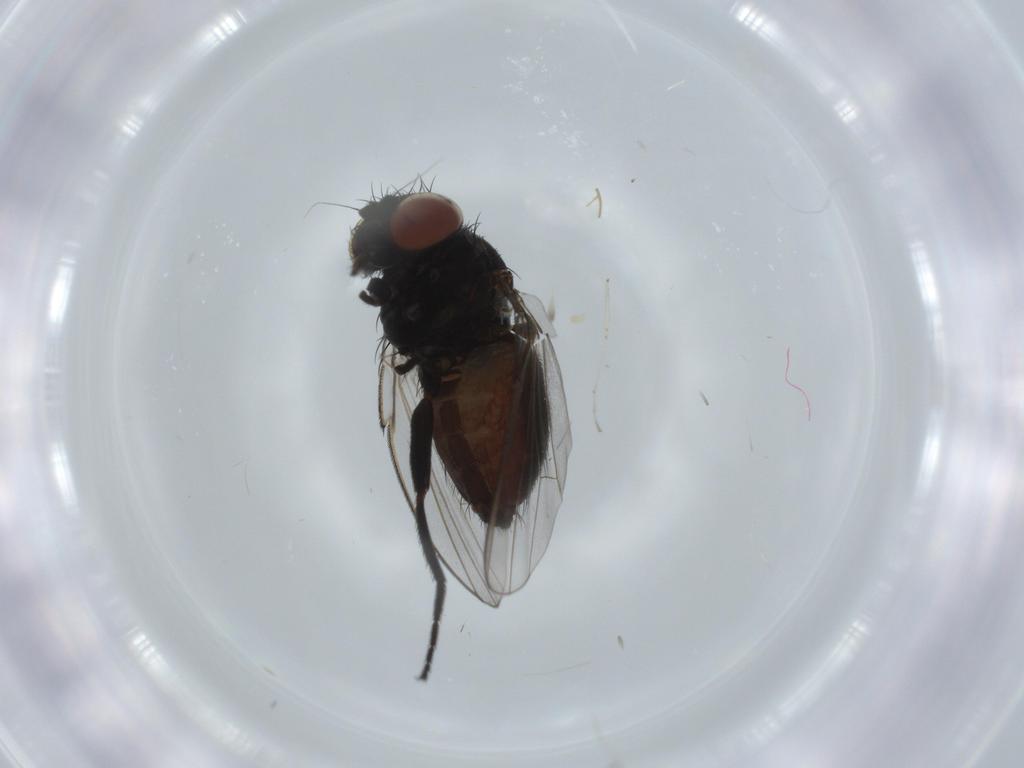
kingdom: Animalia
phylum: Arthropoda
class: Insecta
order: Diptera
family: Milichiidae
